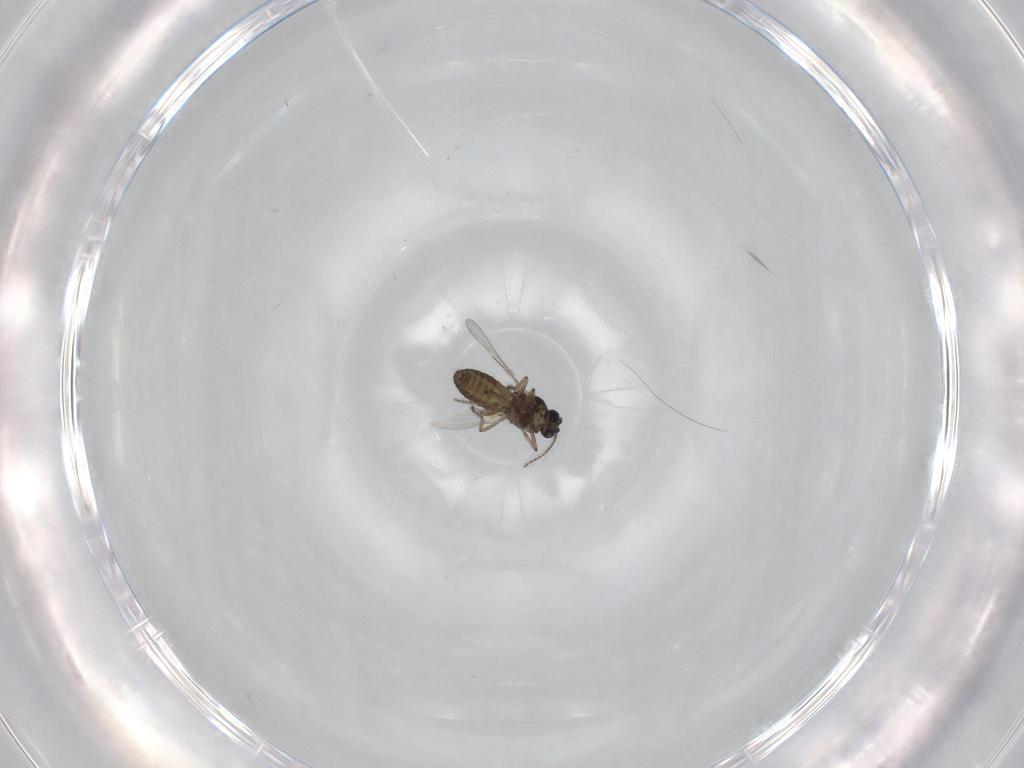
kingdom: Animalia
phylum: Arthropoda
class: Insecta
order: Diptera
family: Ceratopogonidae
